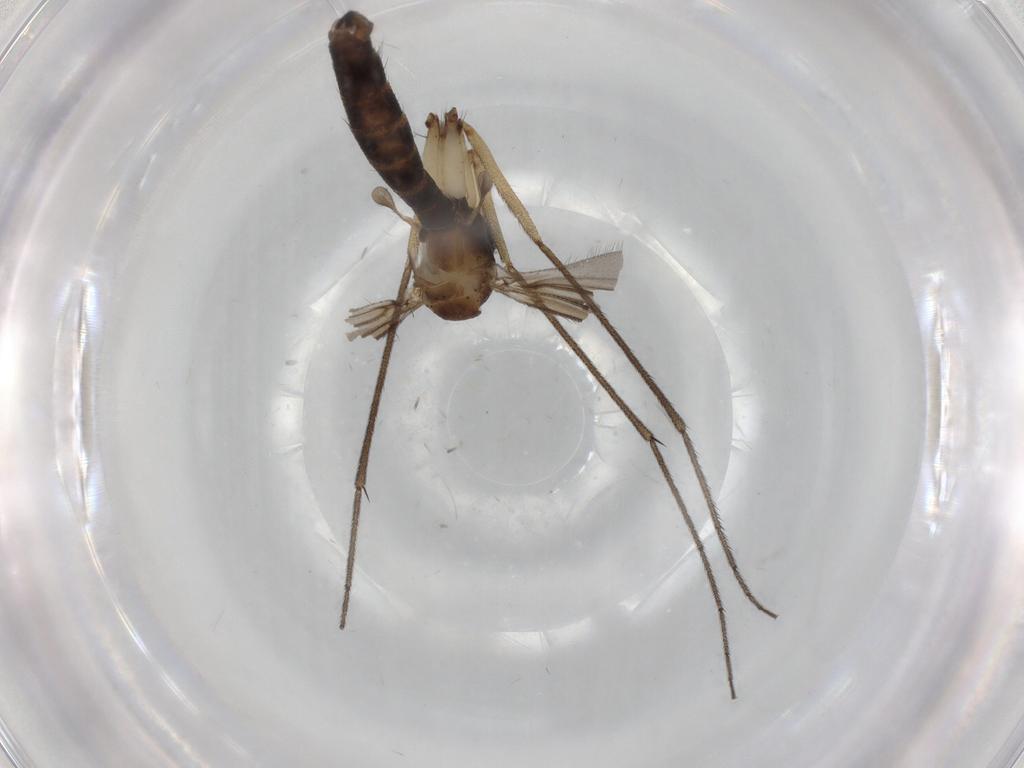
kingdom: Animalia
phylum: Arthropoda
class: Insecta
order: Diptera
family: Ditomyiidae
